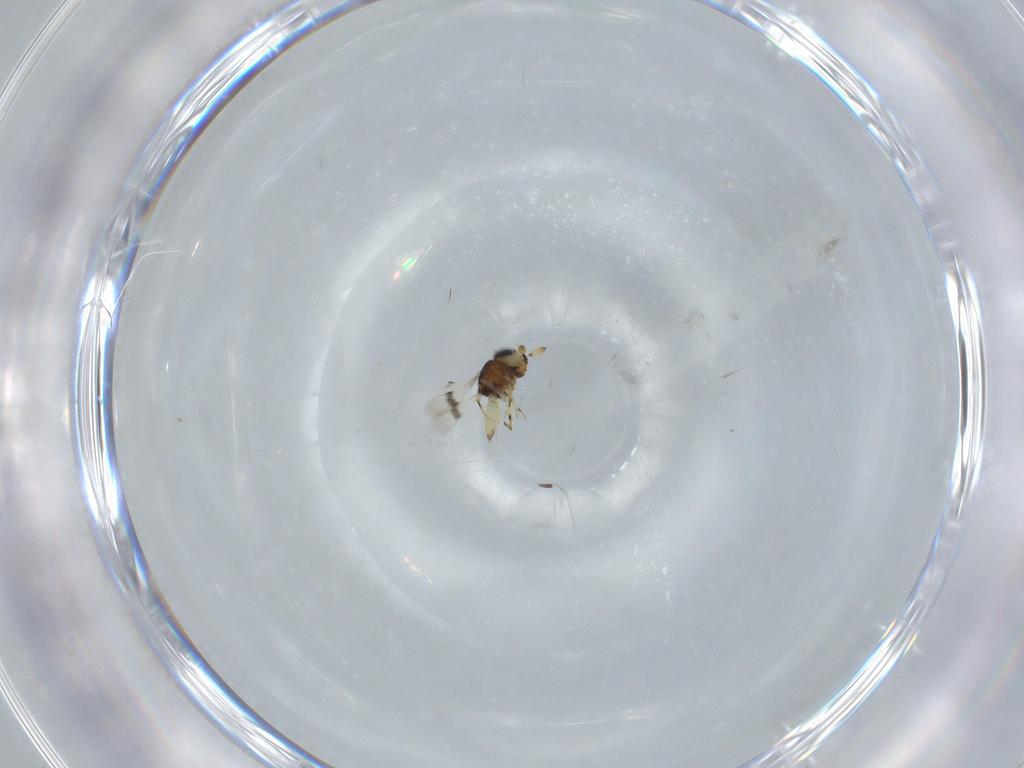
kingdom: Animalia
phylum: Arthropoda
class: Insecta
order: Hymenoptera
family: Scelionidae
